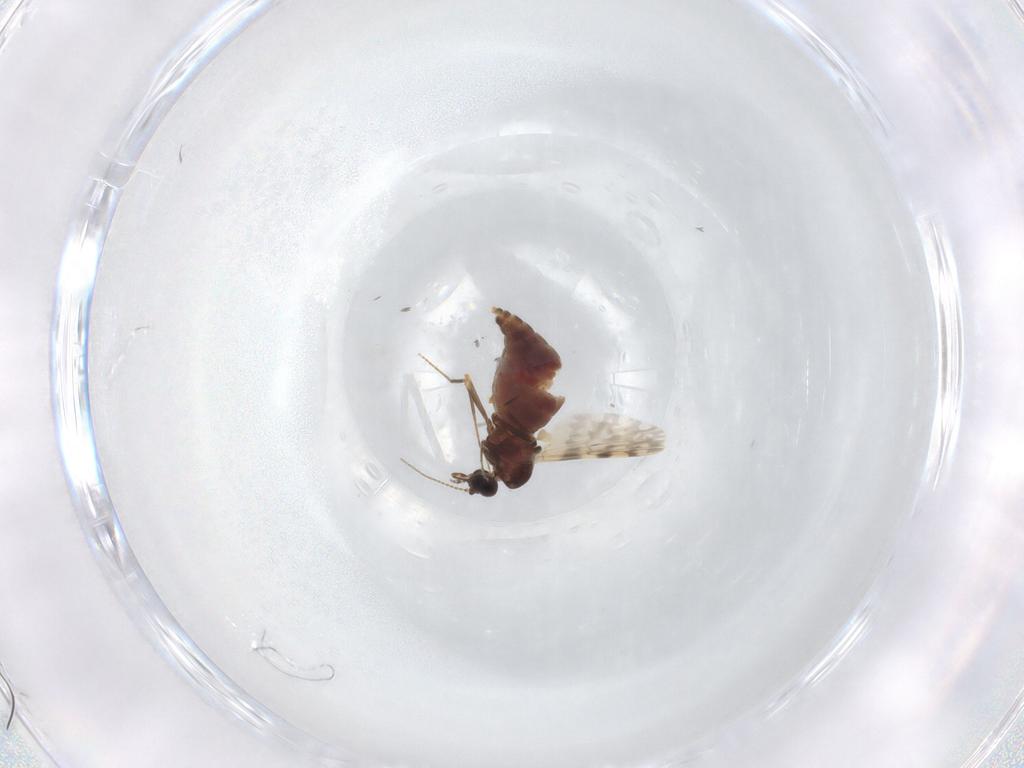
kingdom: Animalia
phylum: Arthropoda
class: Insecta
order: Diptera
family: Ceratopogonidae
